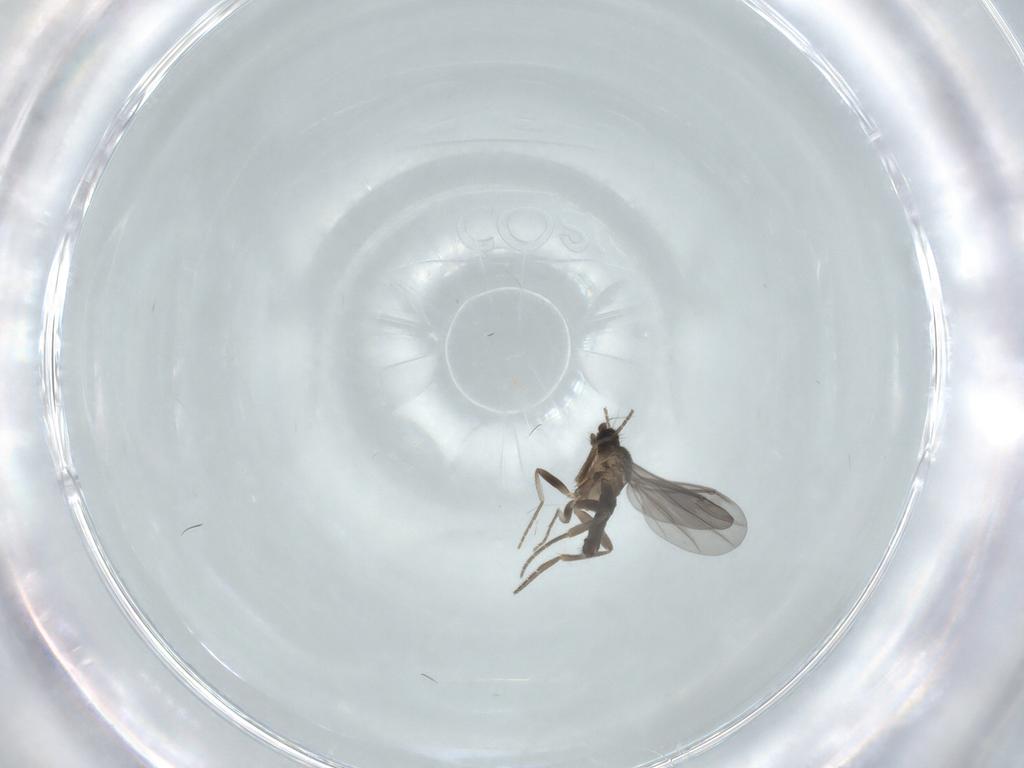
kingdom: Animalia
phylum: Arthropoda
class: Insecta
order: Diptera
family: Phoridae
